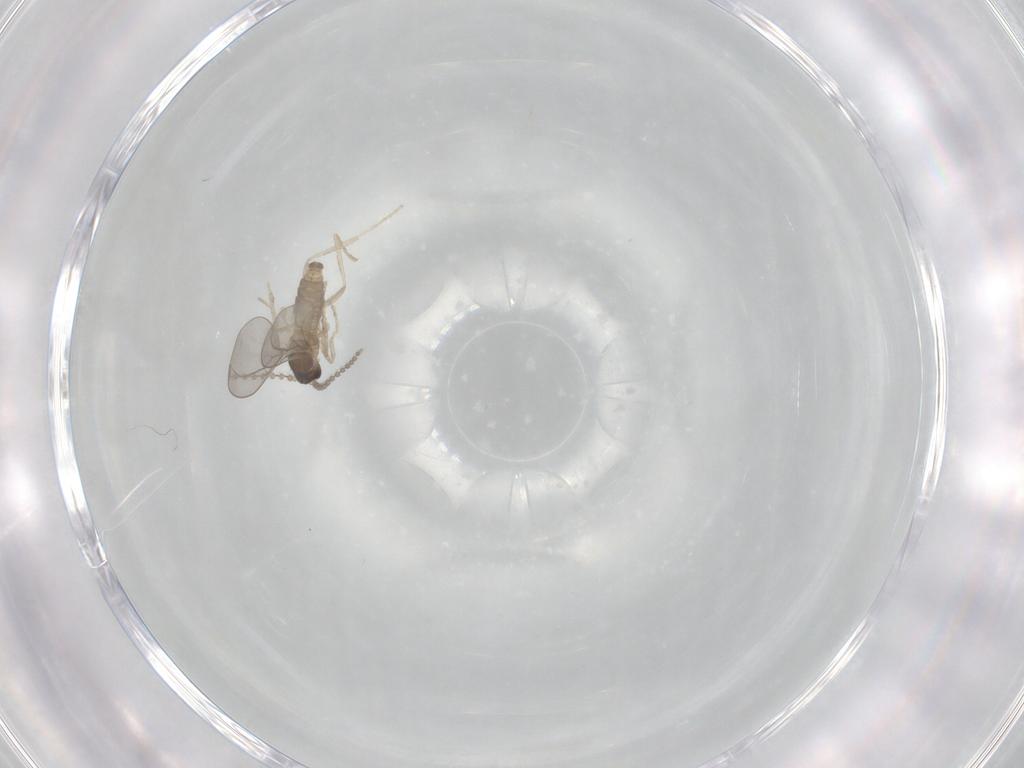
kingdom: Animalia
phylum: Arthropoda
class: Insecta
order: Diptera
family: Cecidomyiidae
